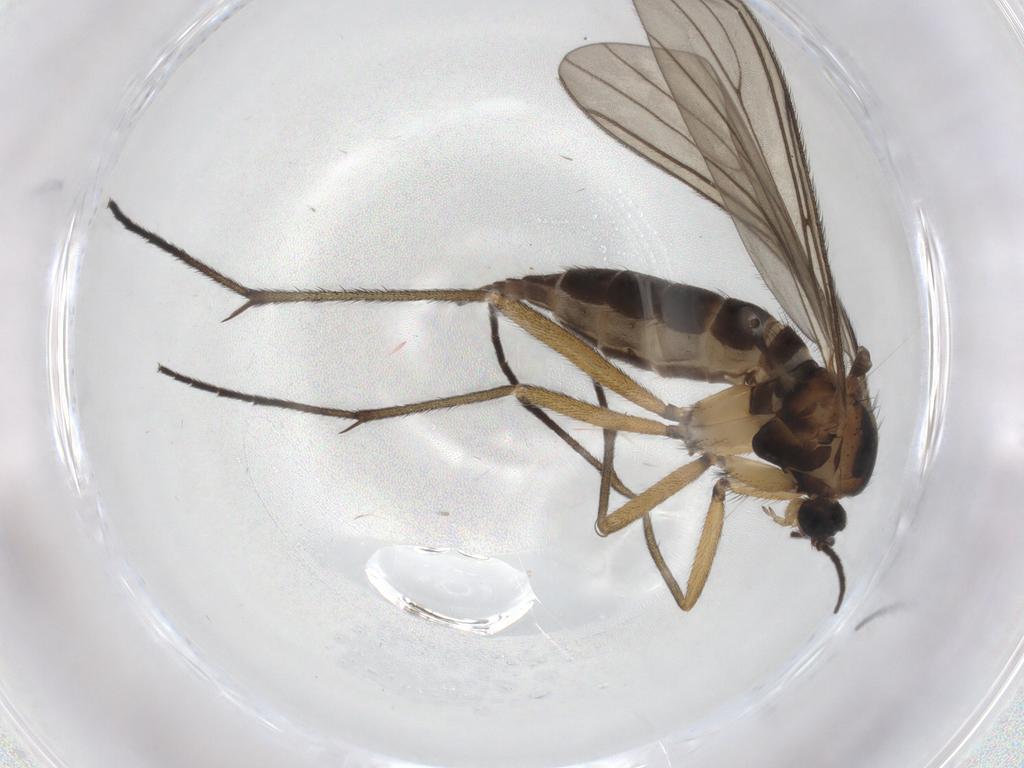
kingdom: Animalia
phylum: Arthropoda
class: Insecta
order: Diptera
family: Sciaridae
